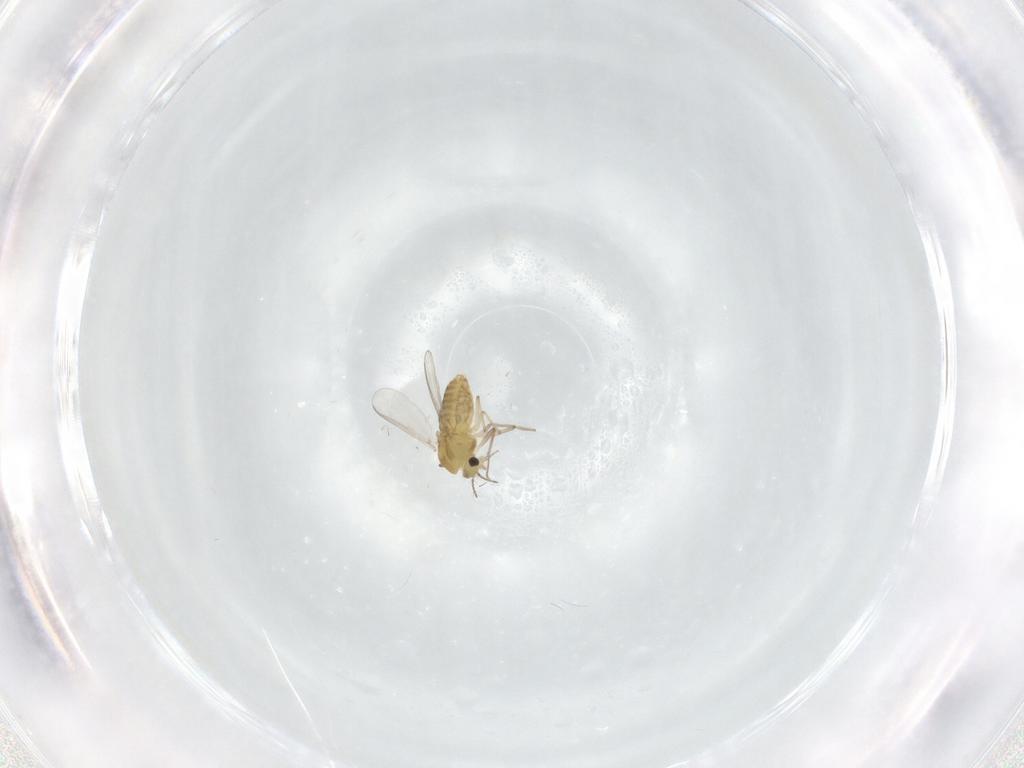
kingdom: Animalia
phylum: Arthropoda
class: Insecta
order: Diptera
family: Chironomidae
